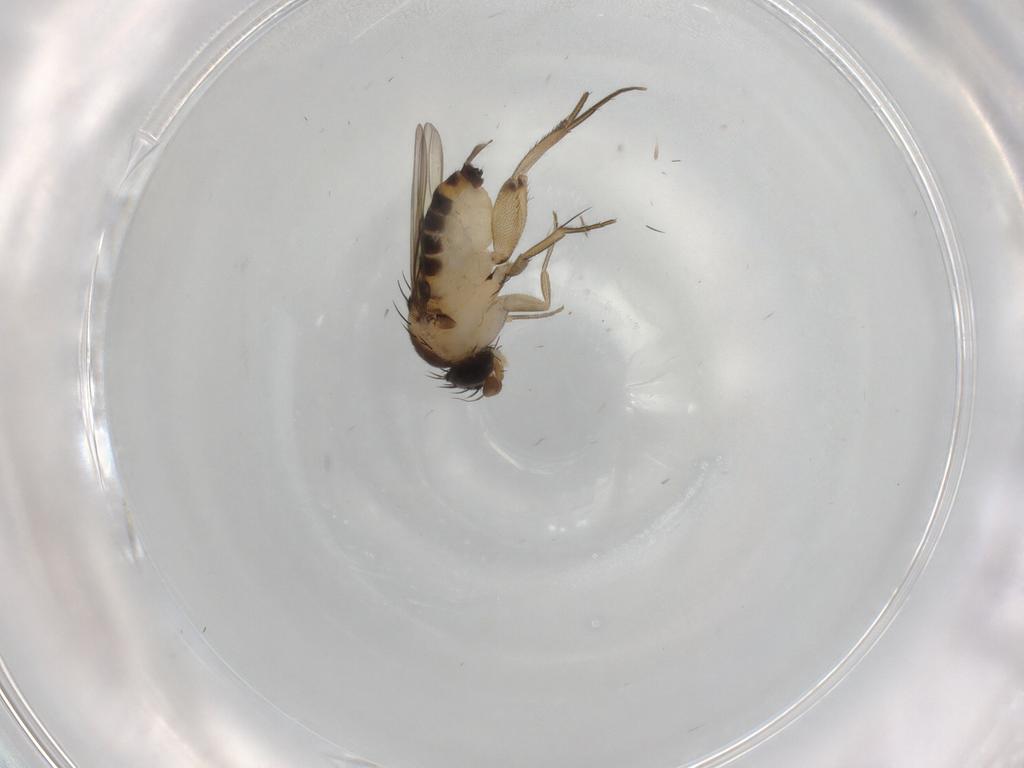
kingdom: Animalia
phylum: Arthropoda
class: Insecta
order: Diptera
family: Phoridae
